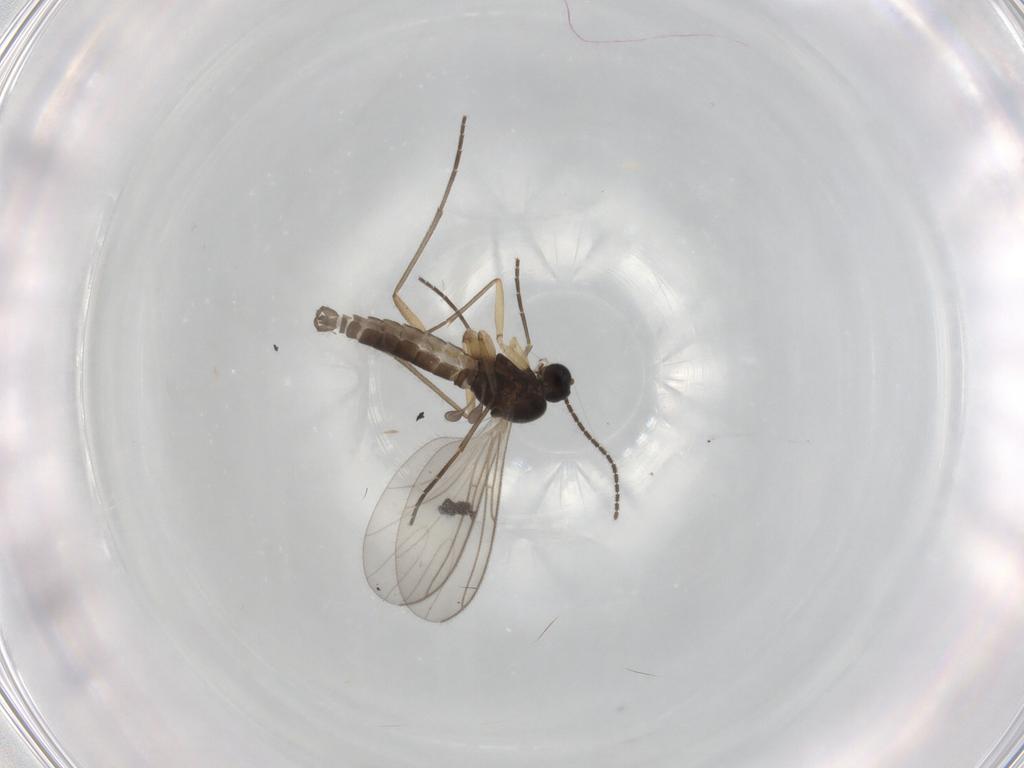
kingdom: Animalia
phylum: Arthropoda
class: Insecta
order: Diptera
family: Sciaridae
